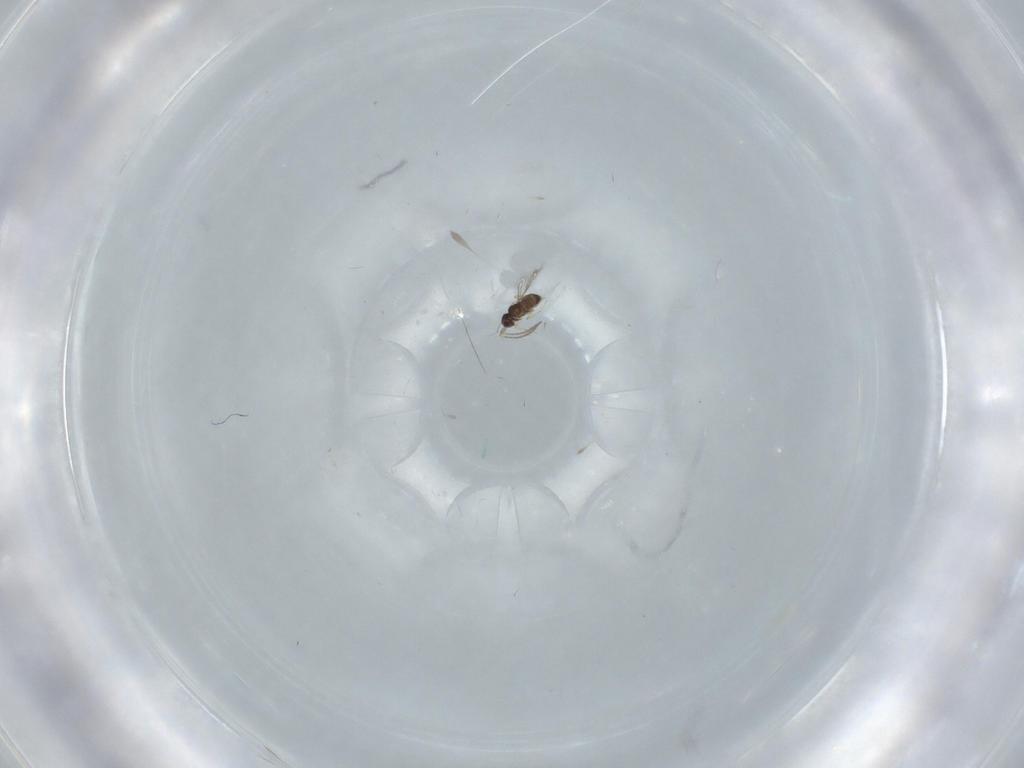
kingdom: Animalia
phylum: Arthropoda
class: Insecta
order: Hymenoptera
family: Vespidae
